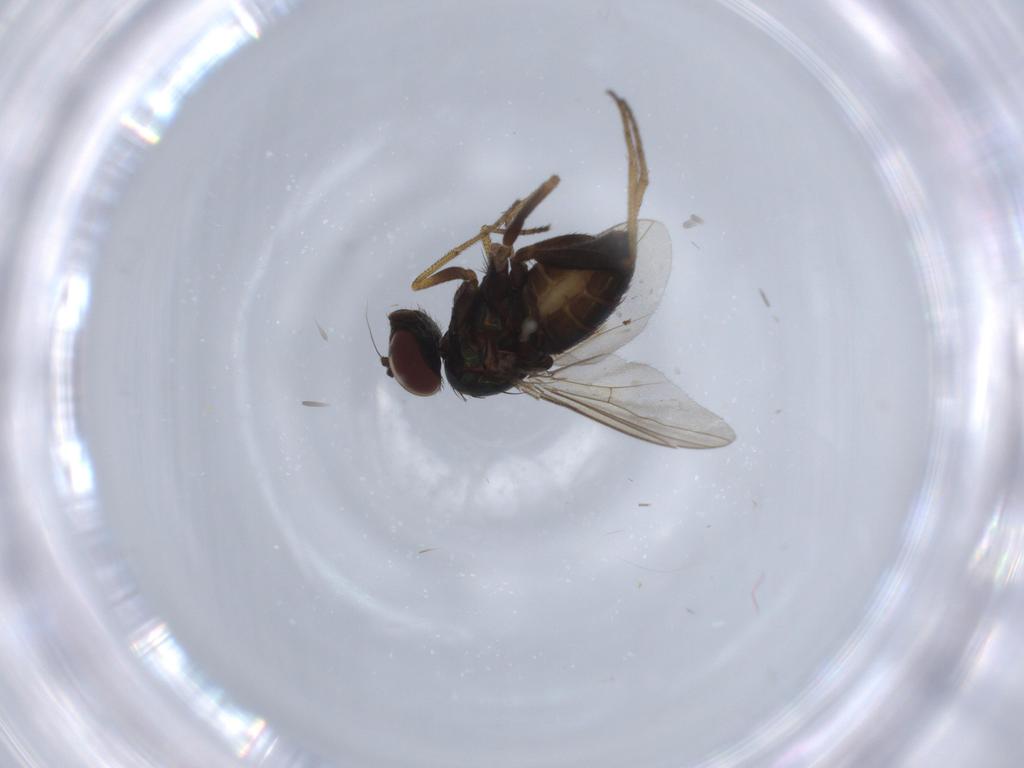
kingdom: Animalia
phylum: Arthropoda
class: Insecta
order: Diptera
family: Dolichopodidae
